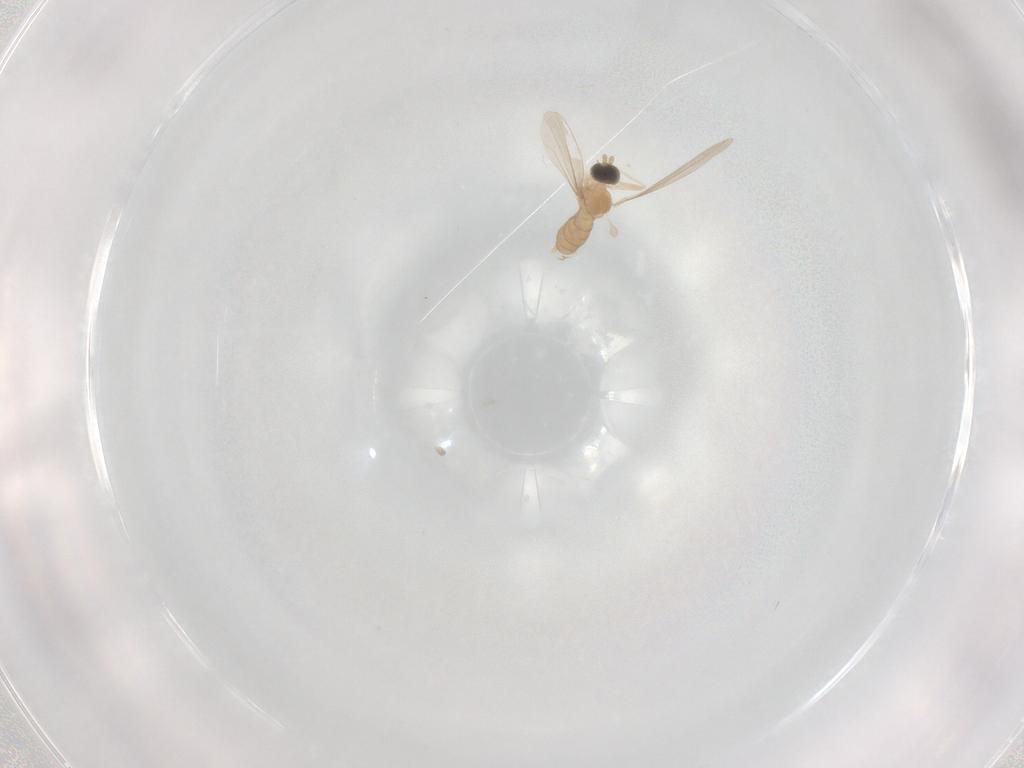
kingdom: Animalia
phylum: Arthropoda
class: Insecta
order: Diptera
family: Cecidomyiidae
